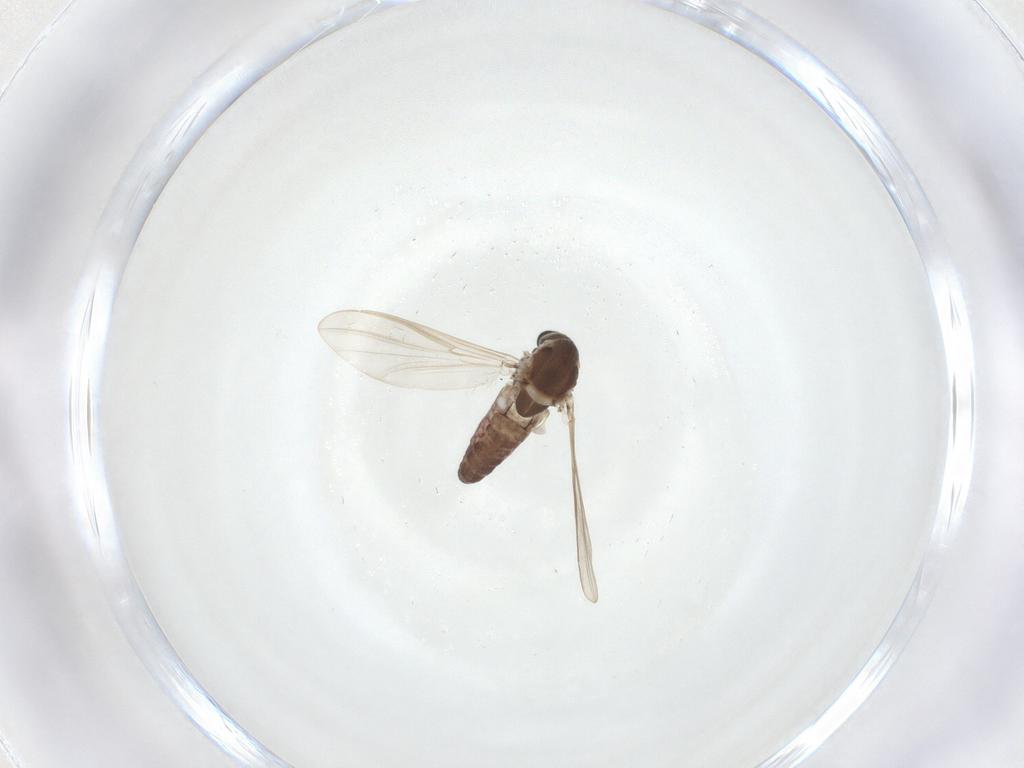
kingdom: Animalia
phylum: Arthropoda
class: Insecta
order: Diptera
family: Chironomidae
